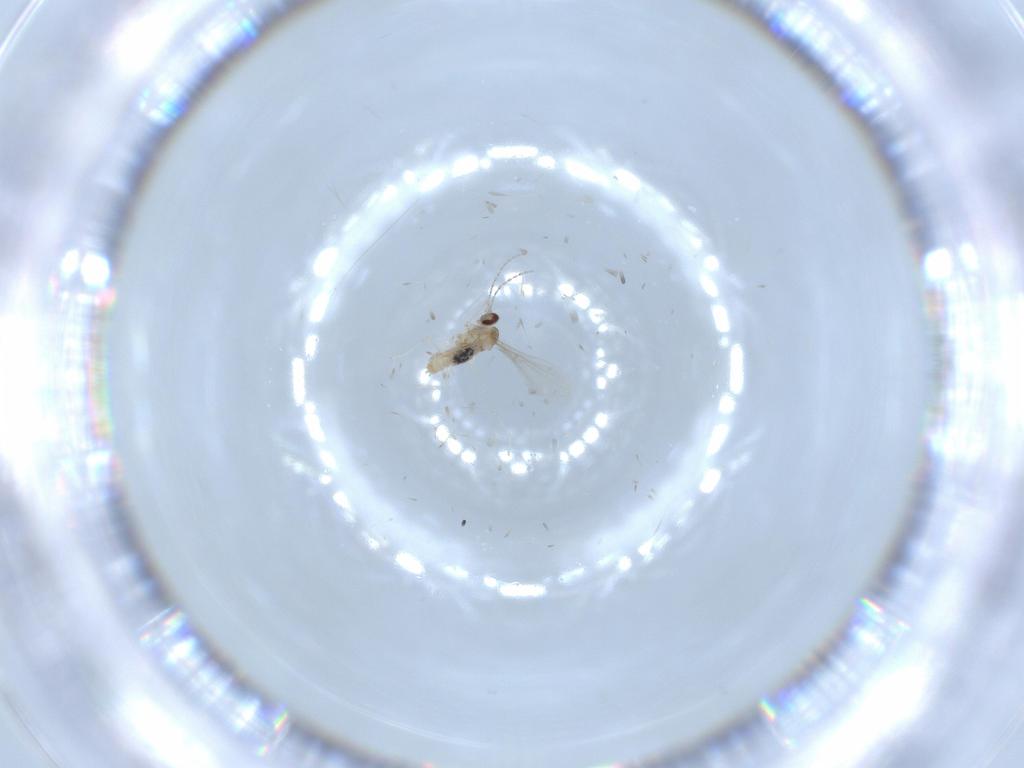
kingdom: Animalia
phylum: Arthropoda
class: Insecta
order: Diptera
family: Cecidomyiidae
